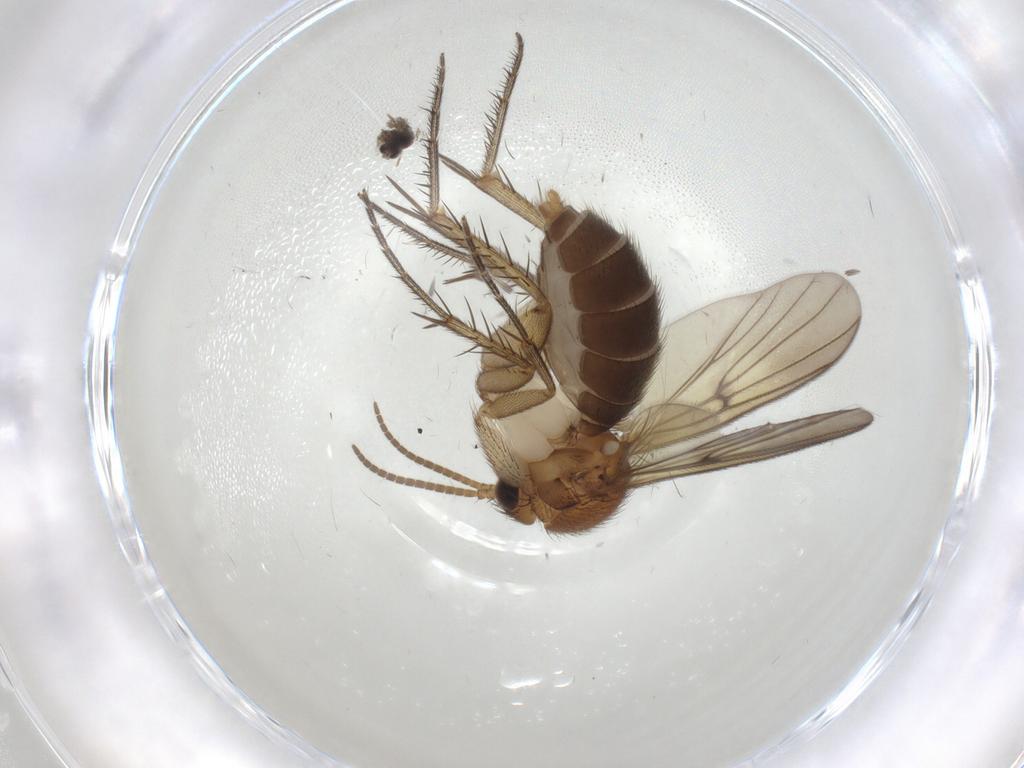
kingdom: Animalia
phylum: Arthropoda
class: Insecta
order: Diptera
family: Mycetophilidae
